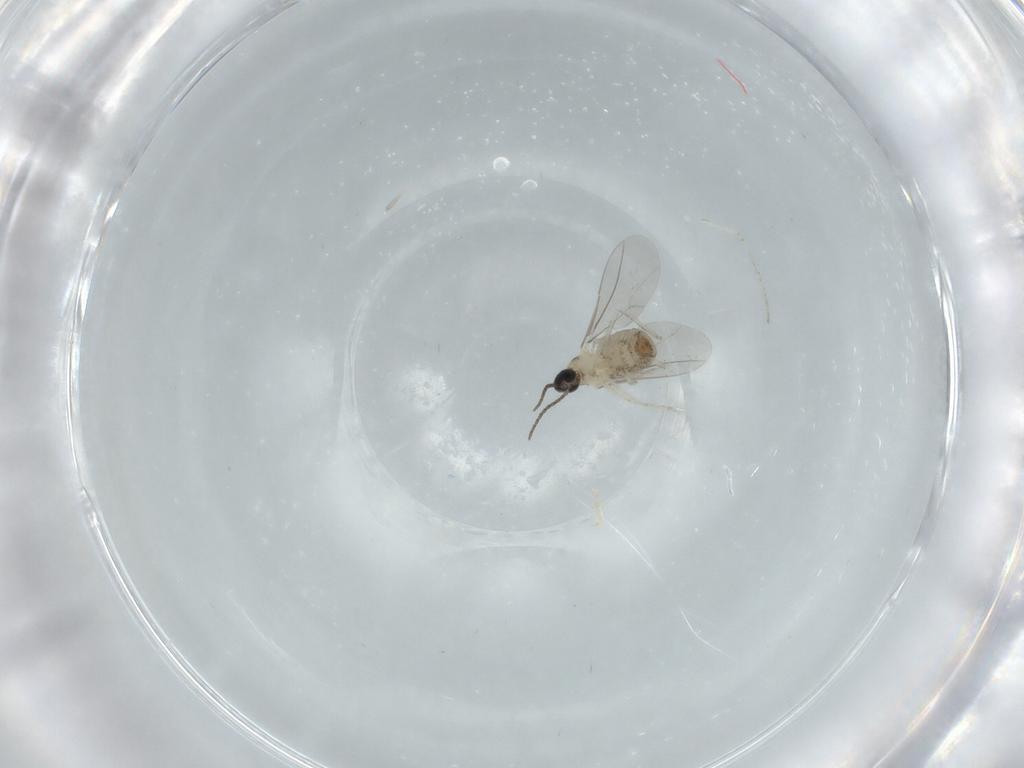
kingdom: Animalia
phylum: Arthropoda
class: Insecta
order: Diptera
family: Cecidomyiidae
